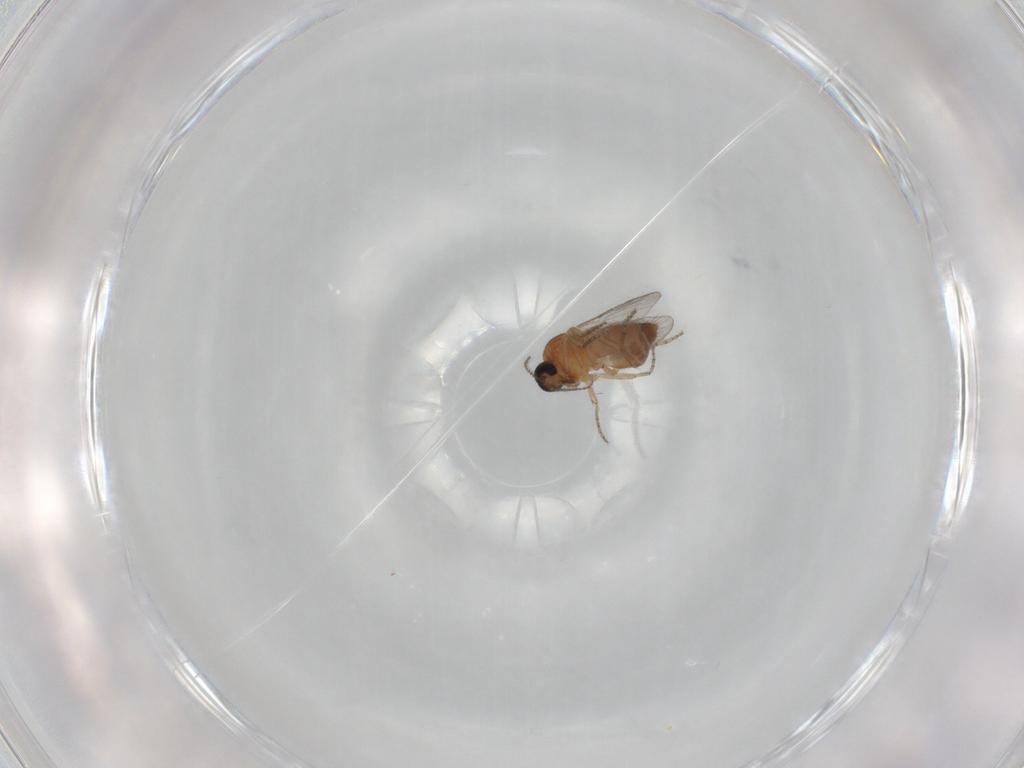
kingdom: Animalia
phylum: Arthropoda
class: Insecta
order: Diptera
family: Ceratopogonidae
